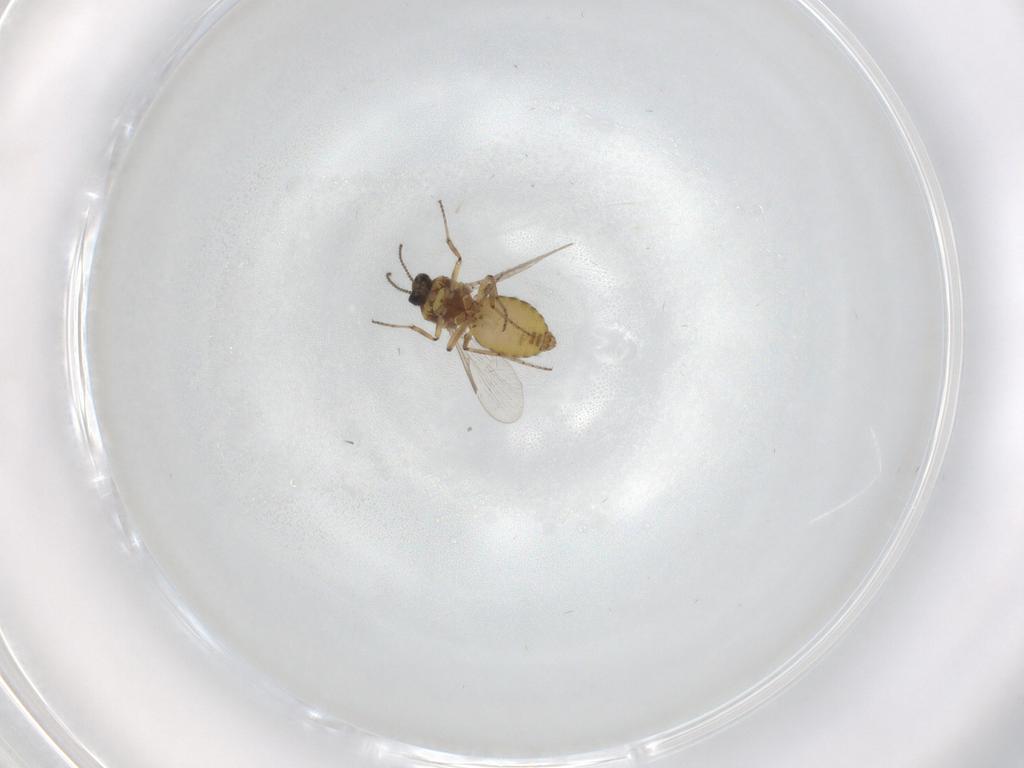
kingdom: Animalia
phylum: Arthropoda
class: Insecta
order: Diptera
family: Ceratopogonidae
